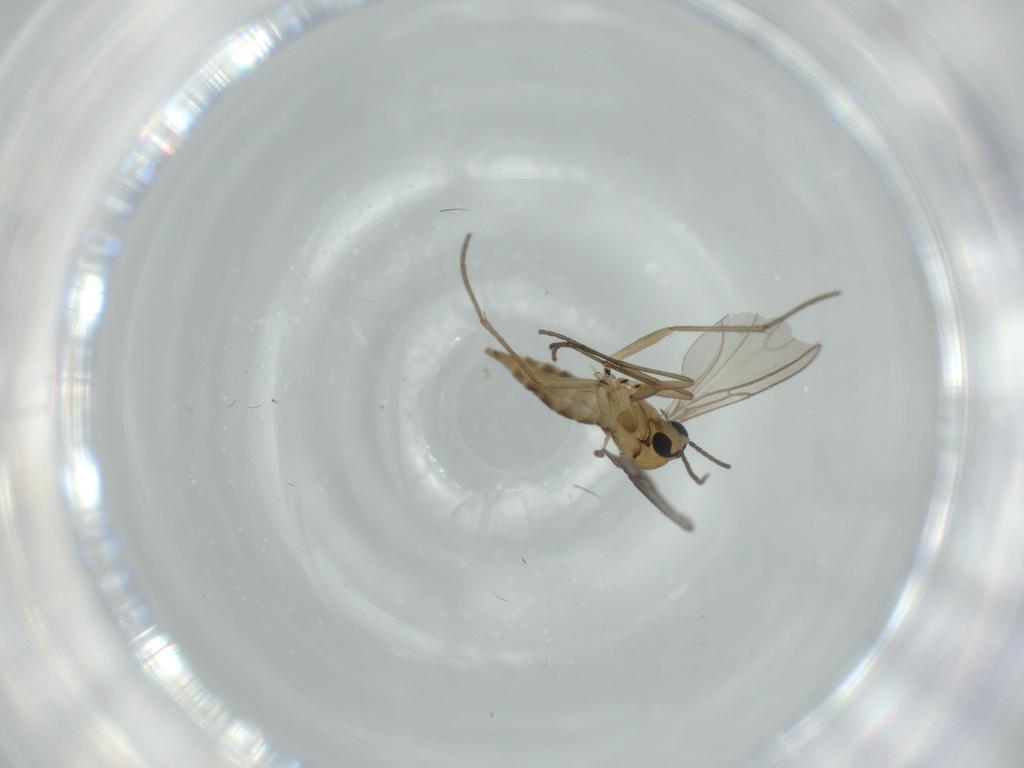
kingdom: Animalia
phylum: Arthropoda
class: Insecta
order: Diptera
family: Sciaridae
